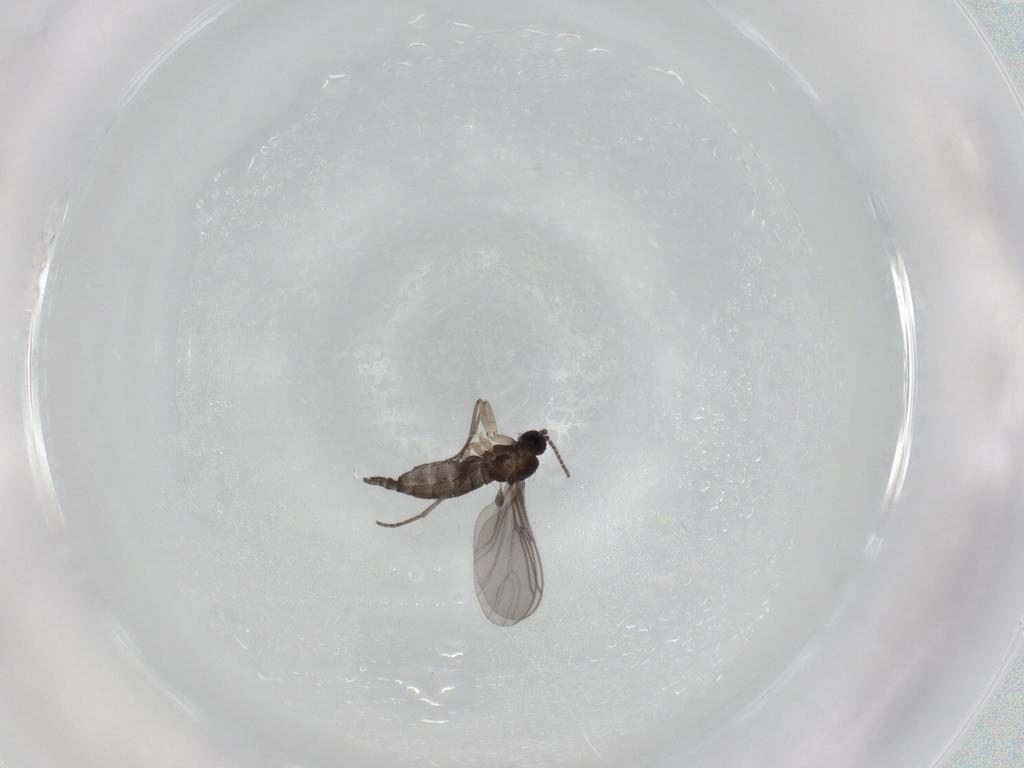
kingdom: Animalia
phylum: Arthropoda
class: Insecta
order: Diptera
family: Sciaridae
